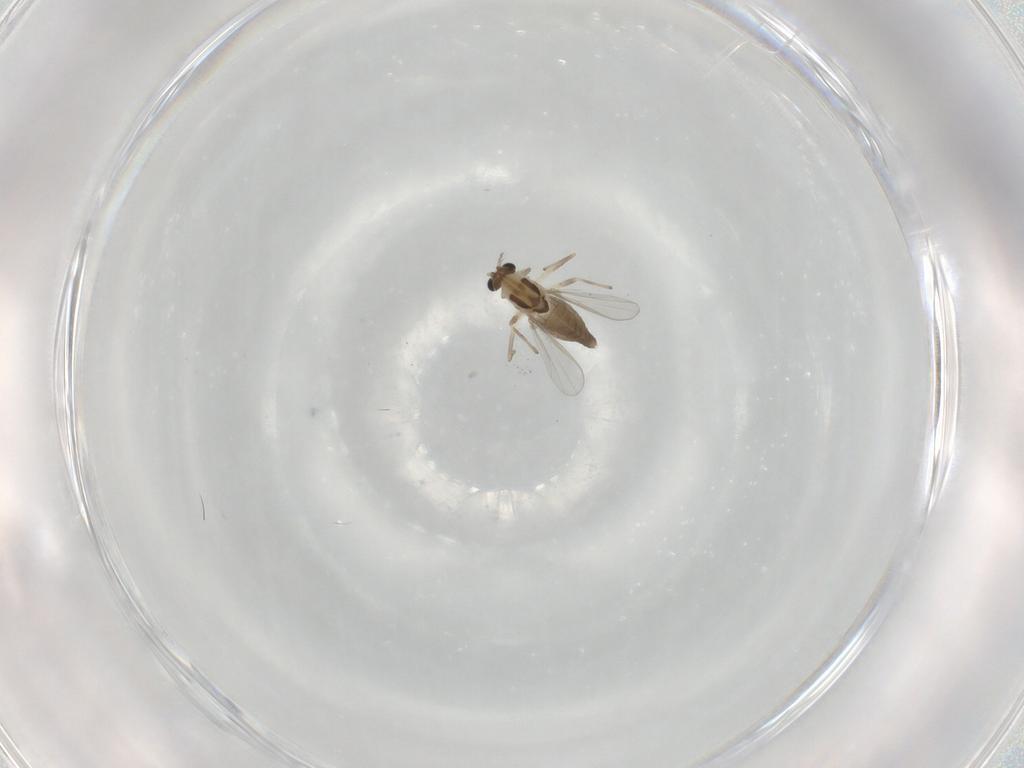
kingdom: Animalia
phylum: Arthropoda
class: Insecta
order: Diptera
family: Chironomidae
